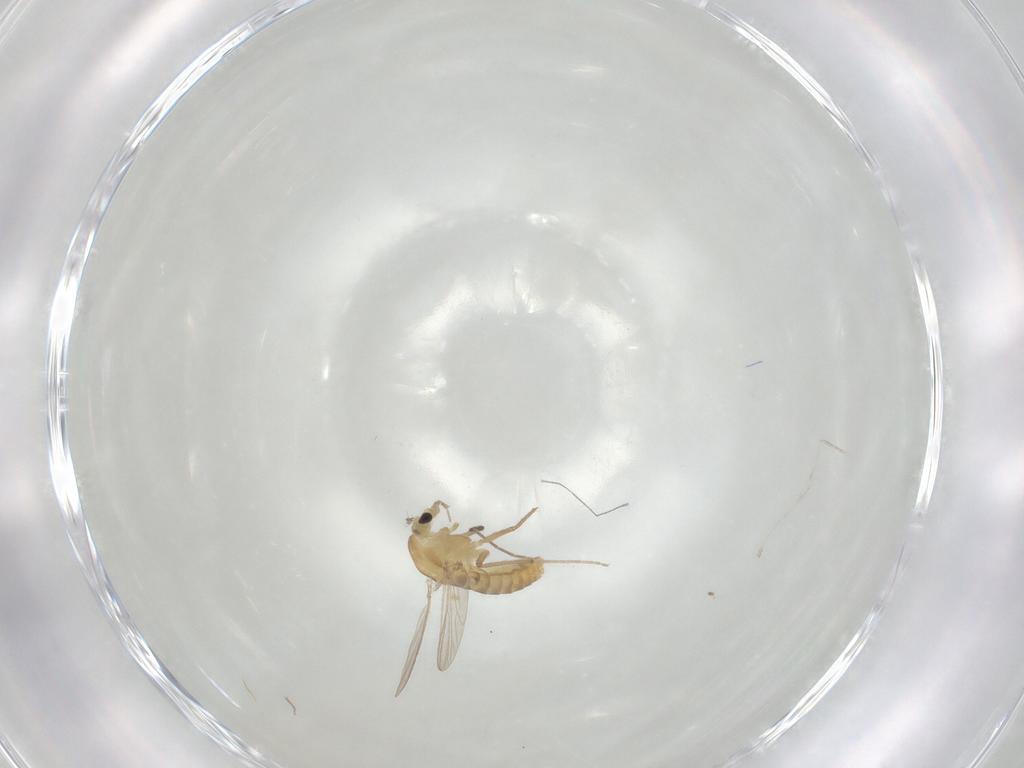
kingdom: Animalia
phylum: Arthropoda
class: Insecta
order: Diptera
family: Chironomidae
